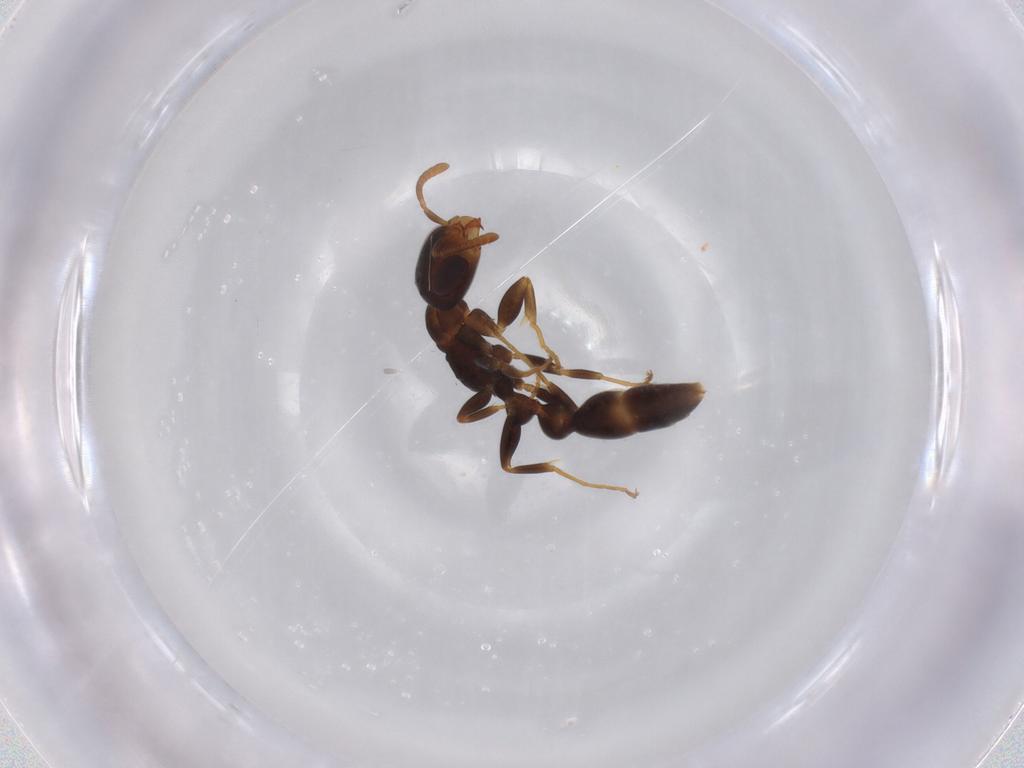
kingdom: Animalia
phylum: Arthropoda
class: Insecta
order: Hymenoptera
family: Formicidae
